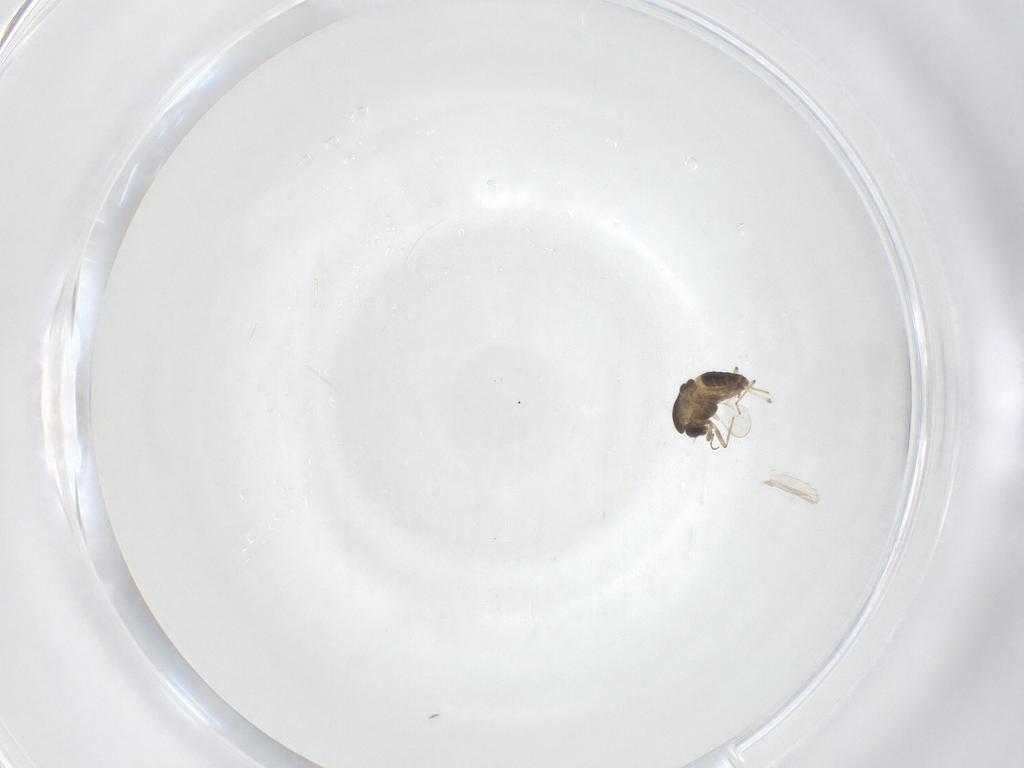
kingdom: Animalia
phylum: Arthropoda
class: Insecta
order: Diptera
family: Chironomidae
